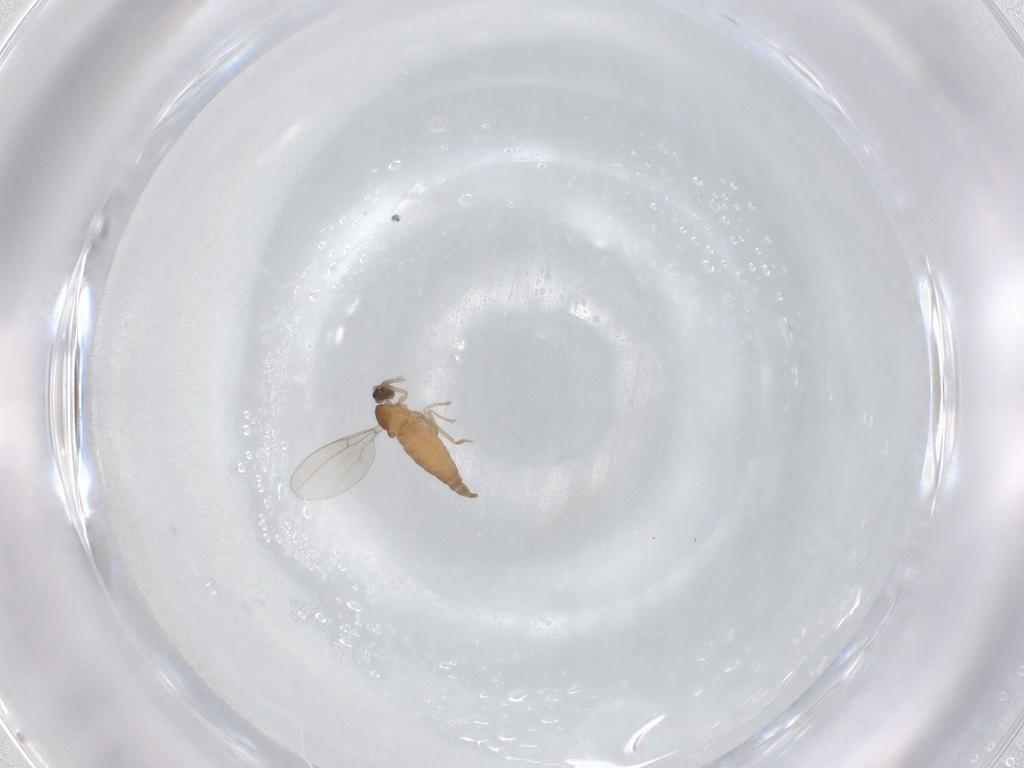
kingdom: Animalia
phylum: Arthropoda
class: Insecta
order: Diptera
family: Cecidomyiidae
